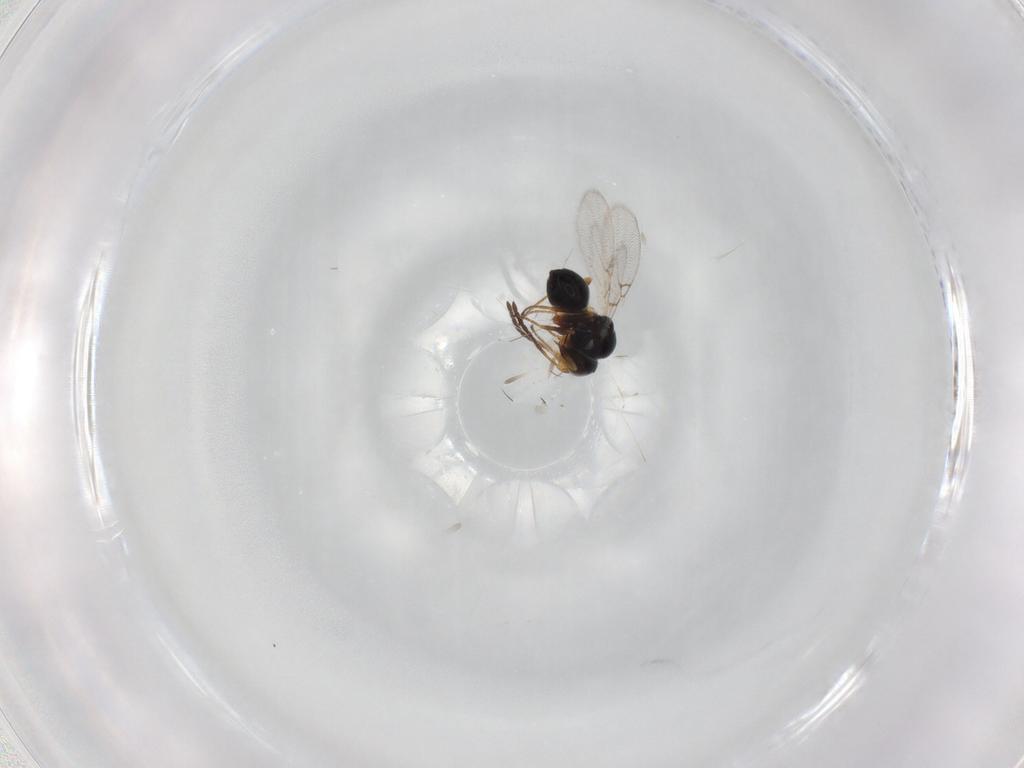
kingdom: Animalia
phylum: Arthropoda
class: Insecta
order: Hymenoptera
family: Figitidae
